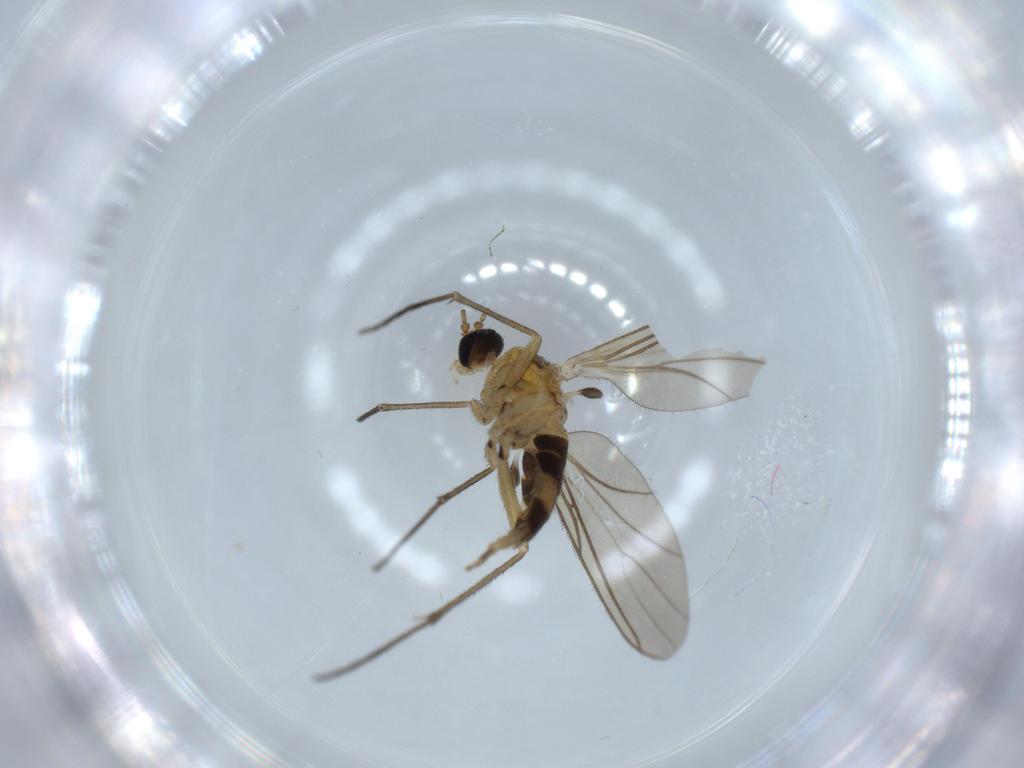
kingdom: Animalia
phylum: Arthropoda
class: Insecta
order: Diptera
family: Sciaridae
